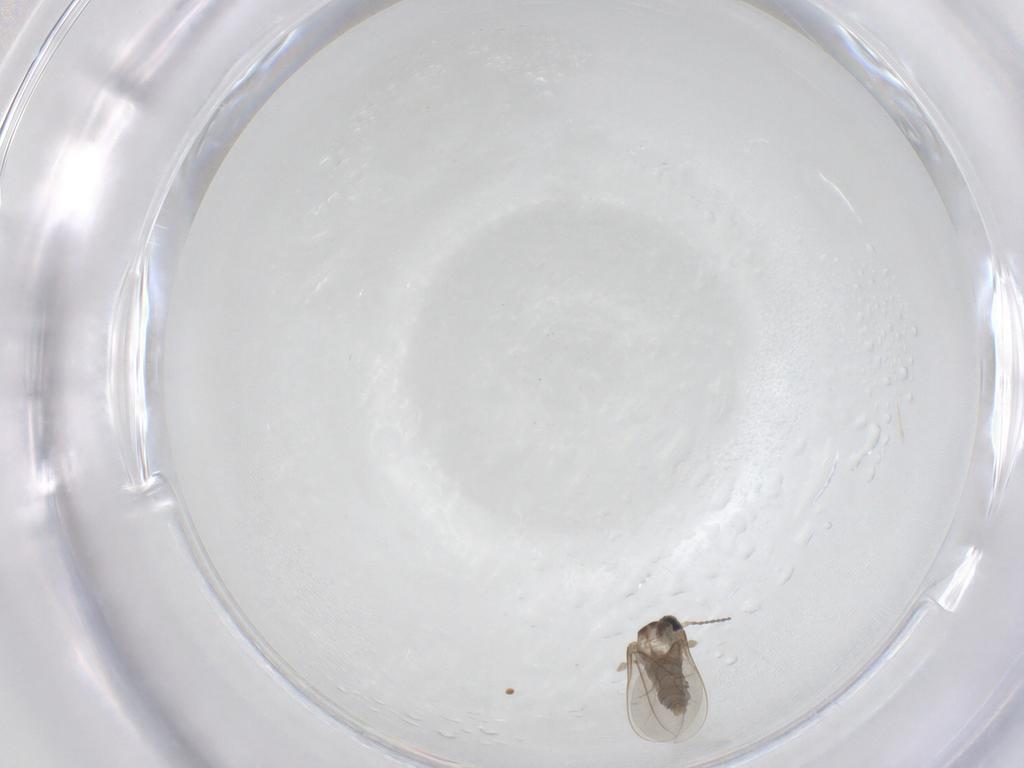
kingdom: Animalia
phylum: Arthropoda
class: Insecta
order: Diptera
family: Cecidomyiidae
